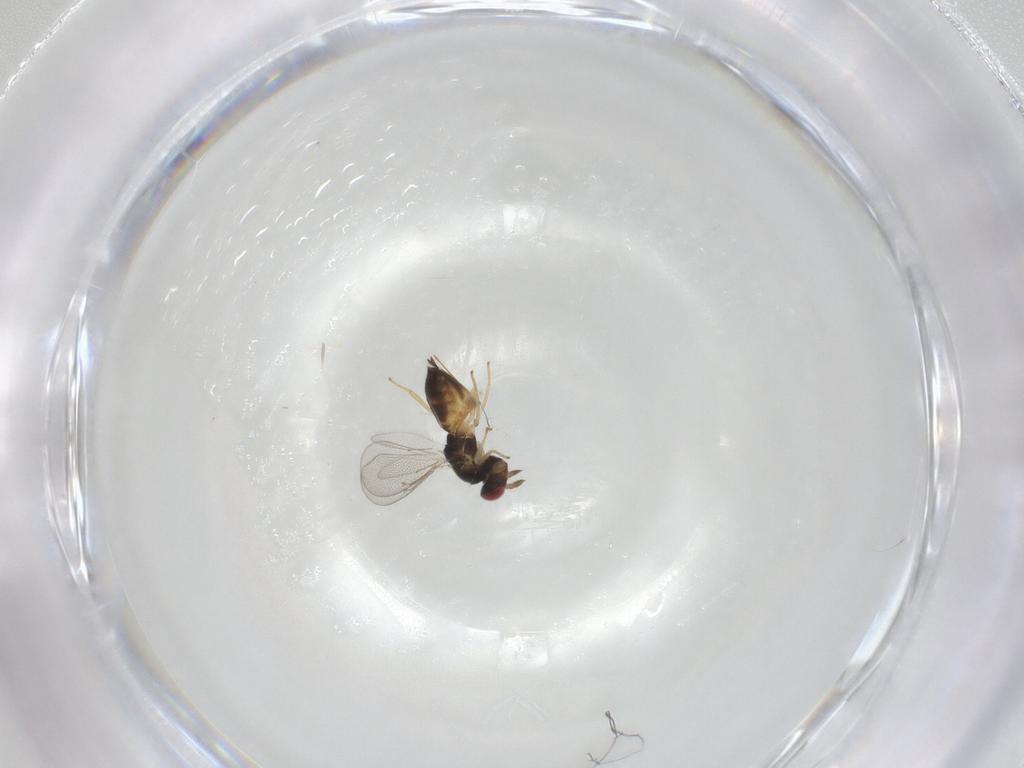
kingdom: Animalia
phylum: Arthropoda
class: Insecta
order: Hymenoptera
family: Eulophidae
